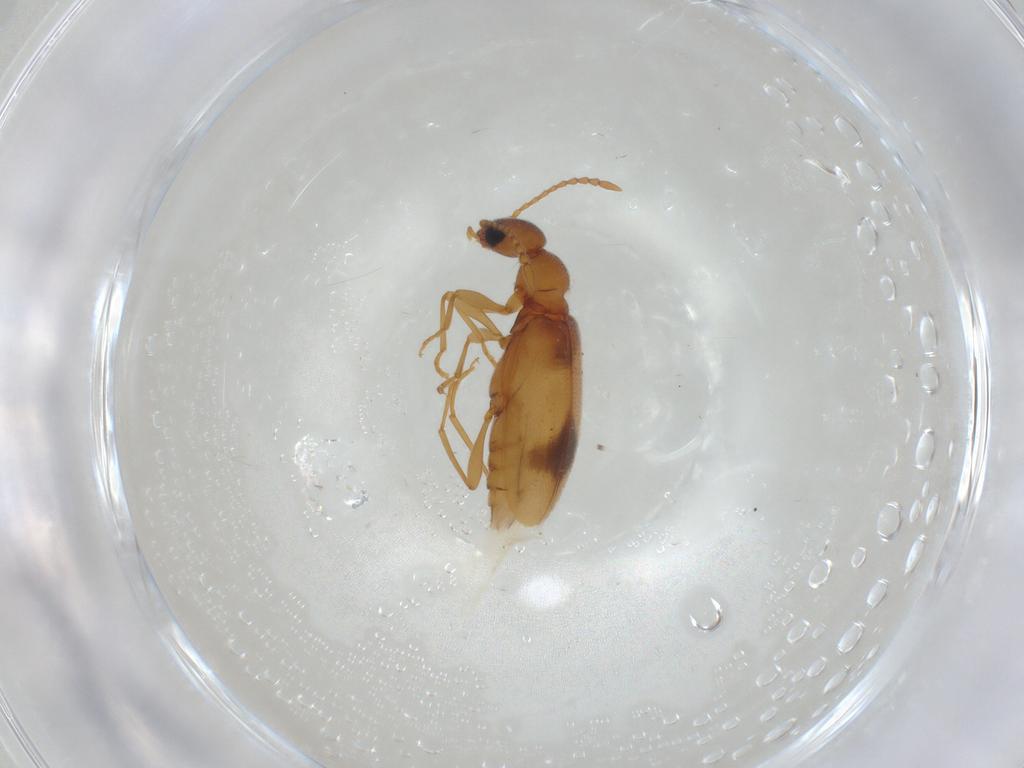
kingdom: Animalia
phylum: Arthropoda
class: Insecta
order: Coleoptera
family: Anthicidae
